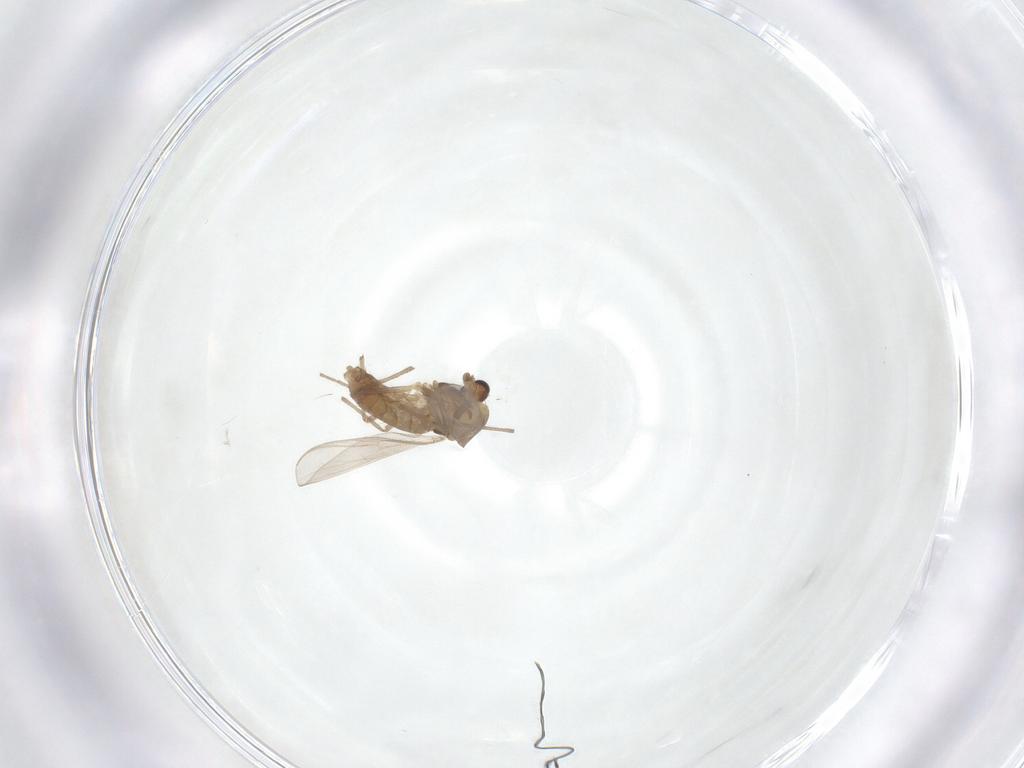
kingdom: Animalia
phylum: Arthropoda
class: Insecta
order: Diptera
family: Chironomidae
